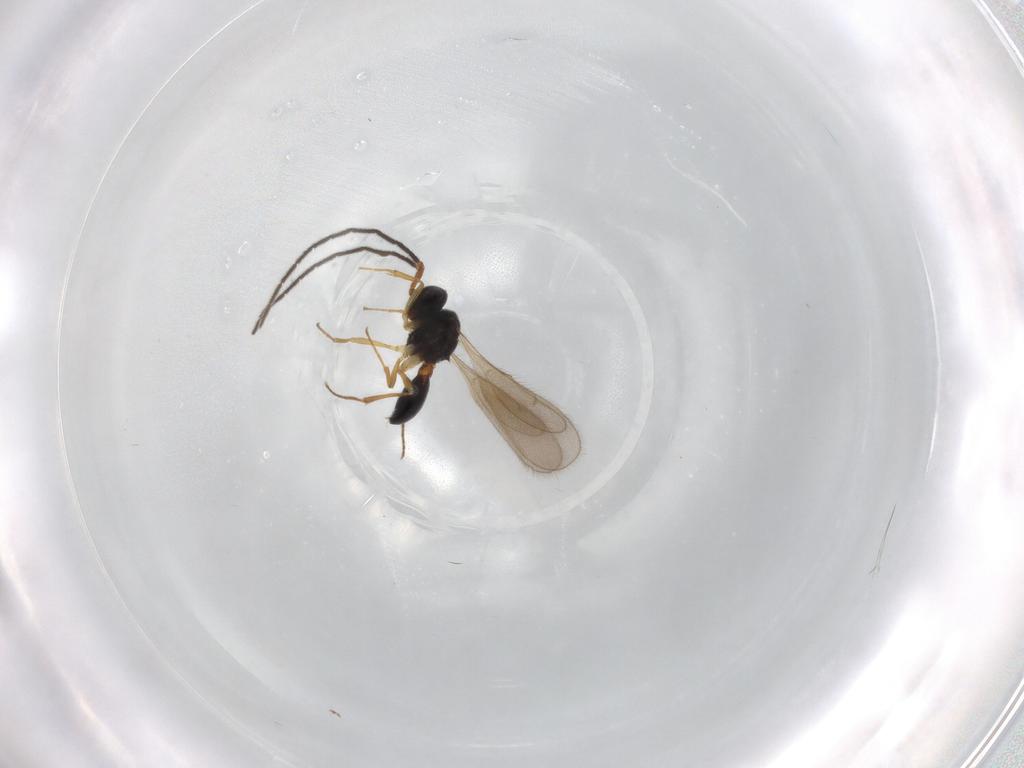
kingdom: Animalia
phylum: Arthropoda
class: Insecta
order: Hymenoptera
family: Scelionidae
